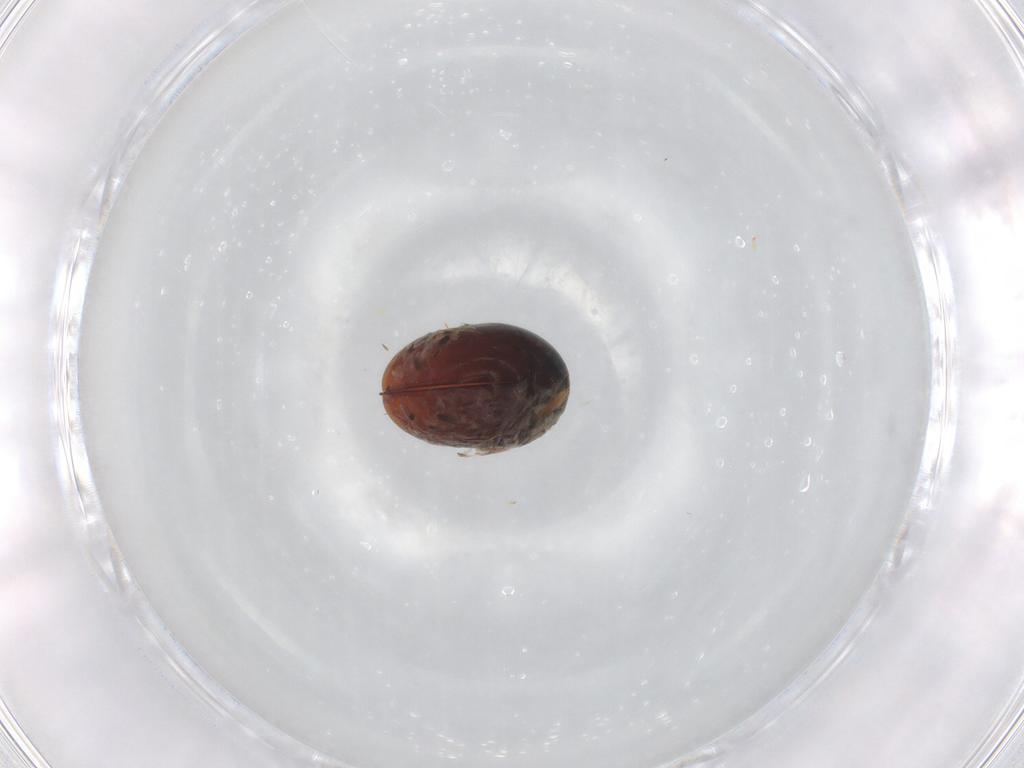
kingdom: Animalia
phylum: Arthropoda
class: Insecta
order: Coleoptera
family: Phalacridae
